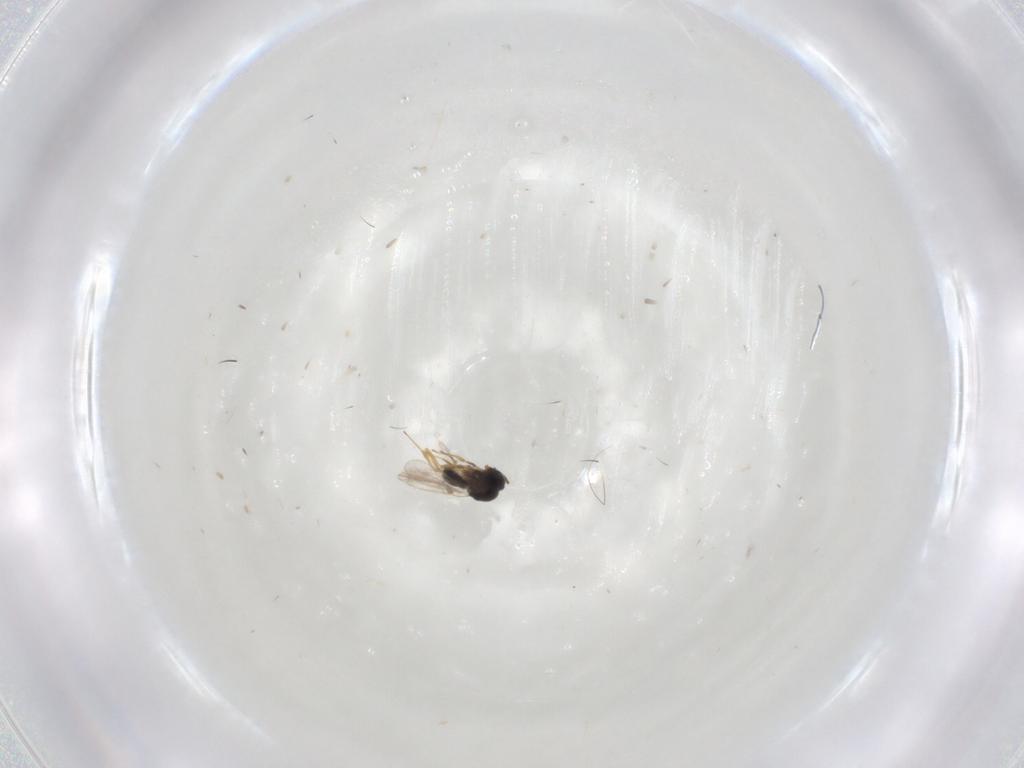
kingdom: Animalia
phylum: Arthropoda
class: Insecta
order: Hymenoptera
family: Scelionidae
